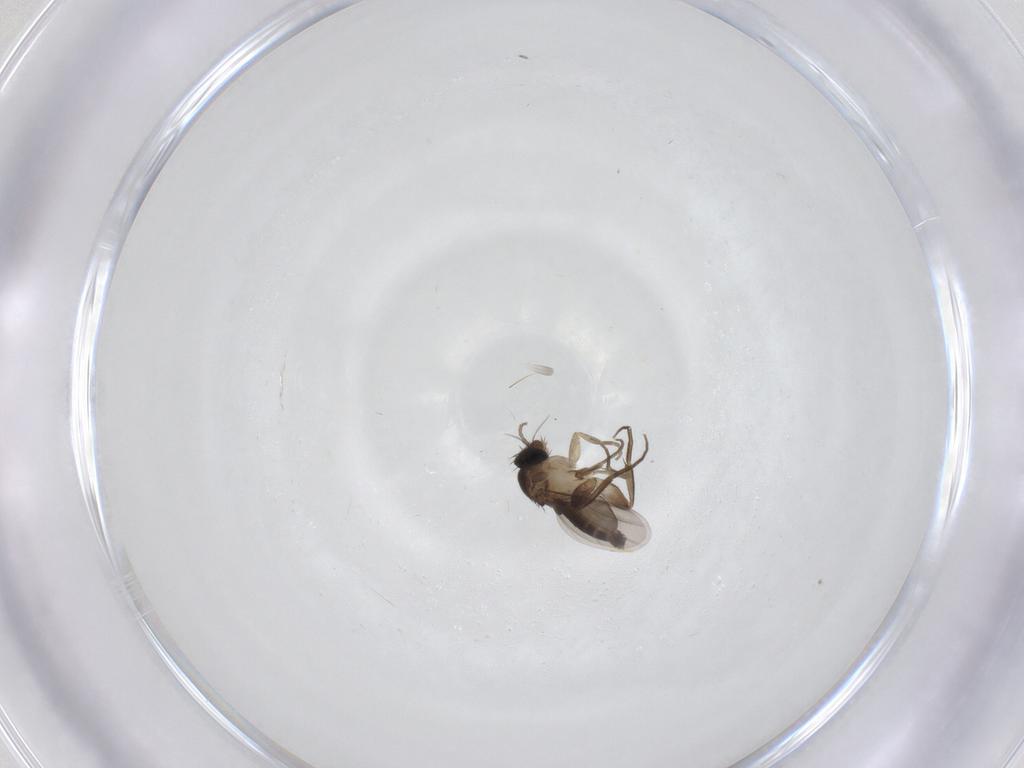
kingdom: Animalia
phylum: Arthropoda
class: Insecta
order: Diptera
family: Phoridae
